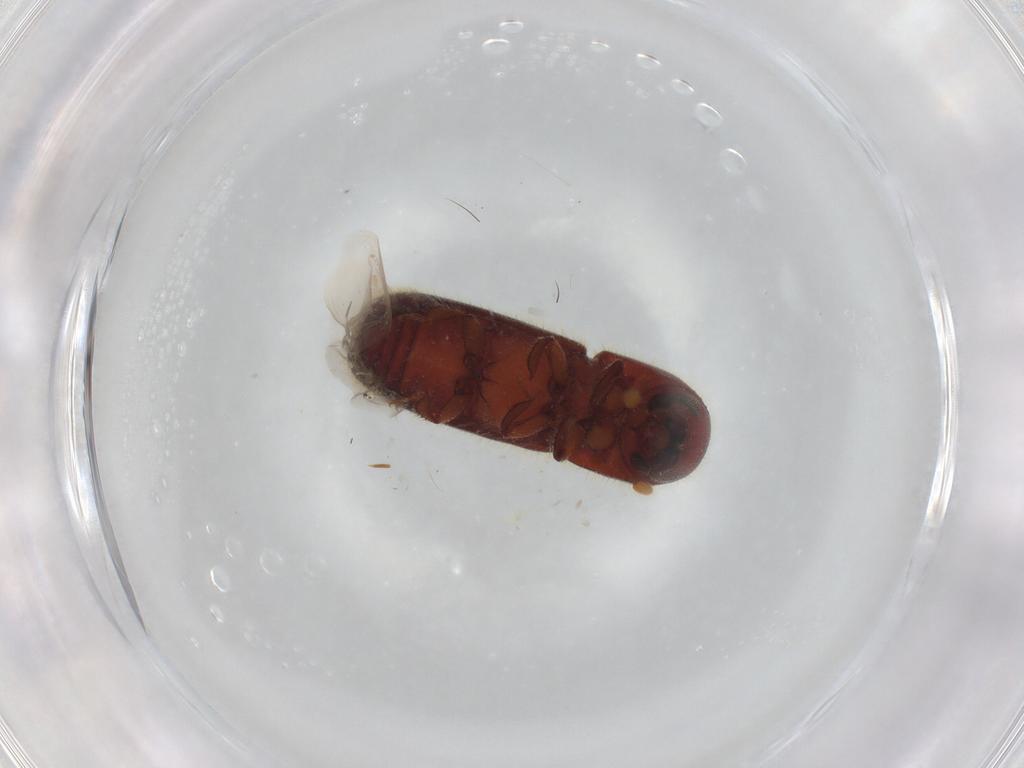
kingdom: Animalia
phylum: Arthropoda
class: Insecta
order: Coleoptera
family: Curculionidae
